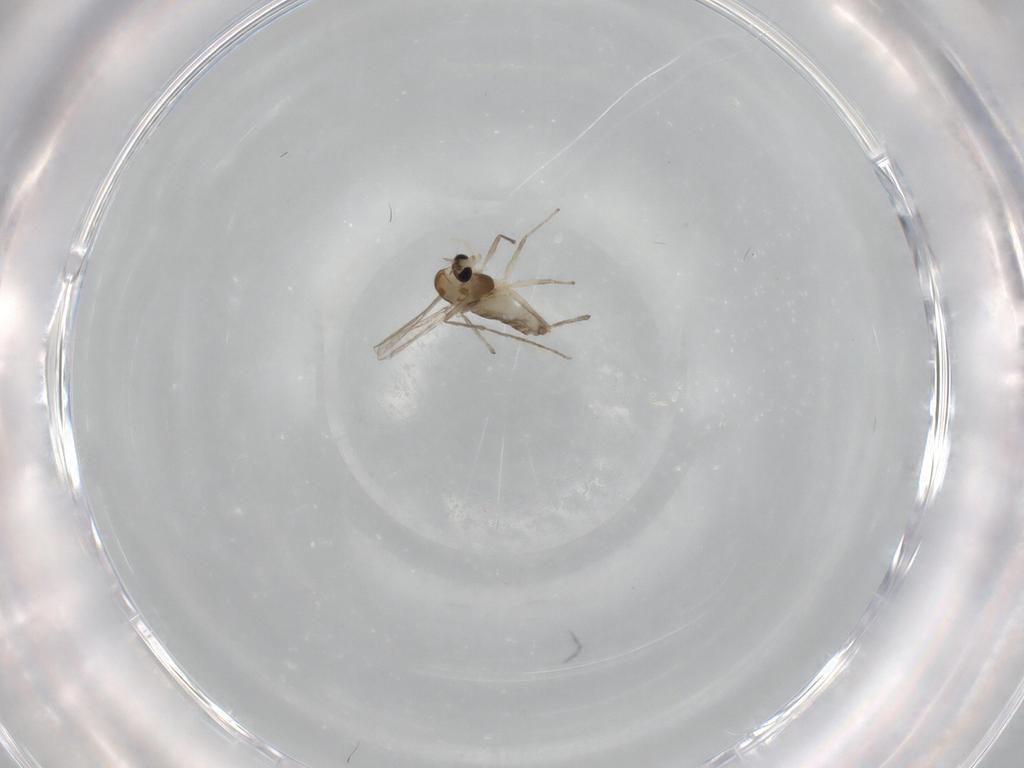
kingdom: Animalia
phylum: Arthropoda
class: Insecta
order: Diptera
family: Chironomidae
